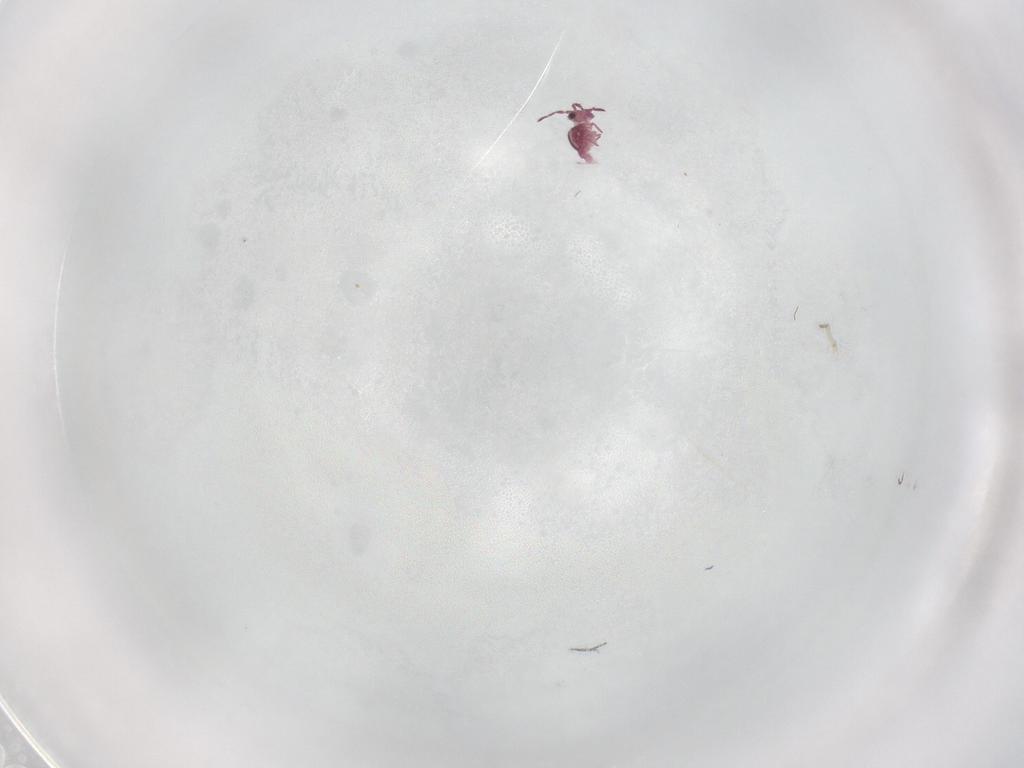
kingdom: Animalia
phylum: Arthropoda
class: Collembola
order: Symphypleona
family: Sminthurididae
